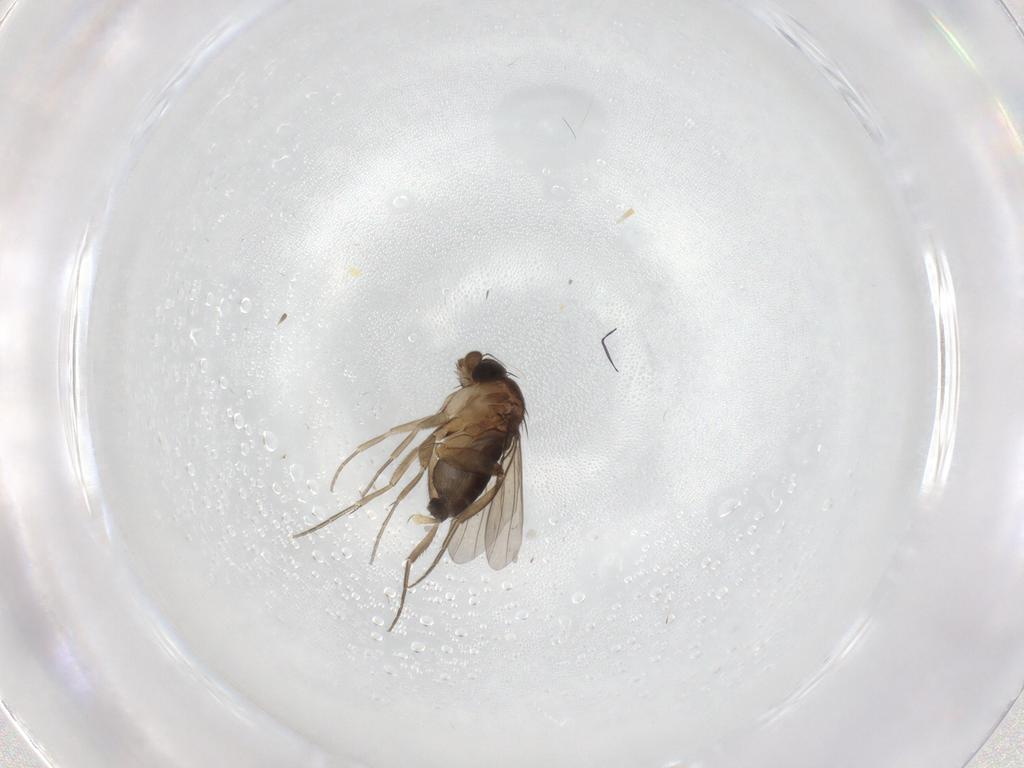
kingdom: Animalia
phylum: Arthropoda
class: Insecta
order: Diptera
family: Phoridae
